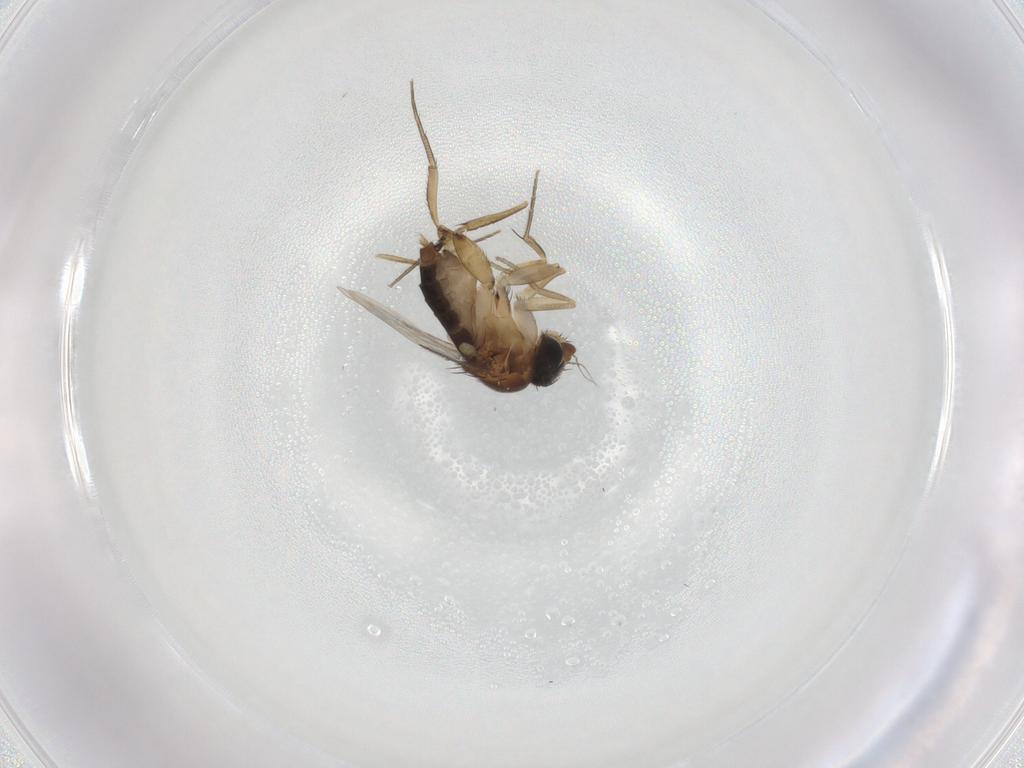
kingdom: Animalia
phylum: Arthropoda
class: Insecta
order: Diptera
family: Phoridae
